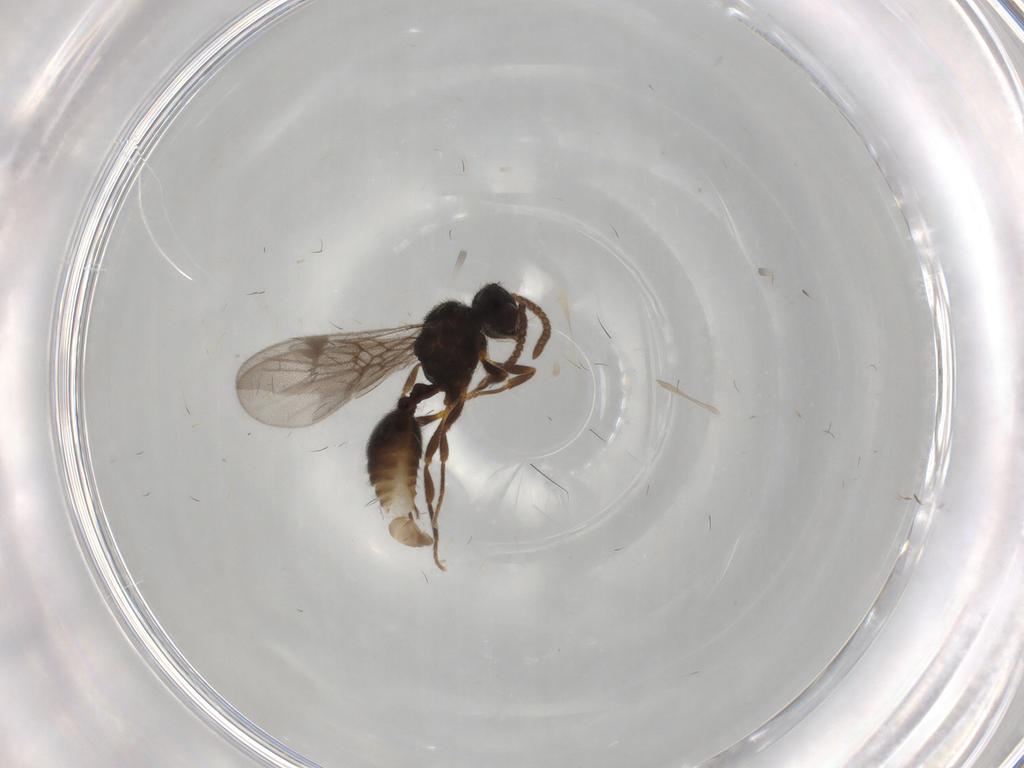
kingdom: Animalia
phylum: Arthropoda
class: Insecta
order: Hymenoptera
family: Formicidae
